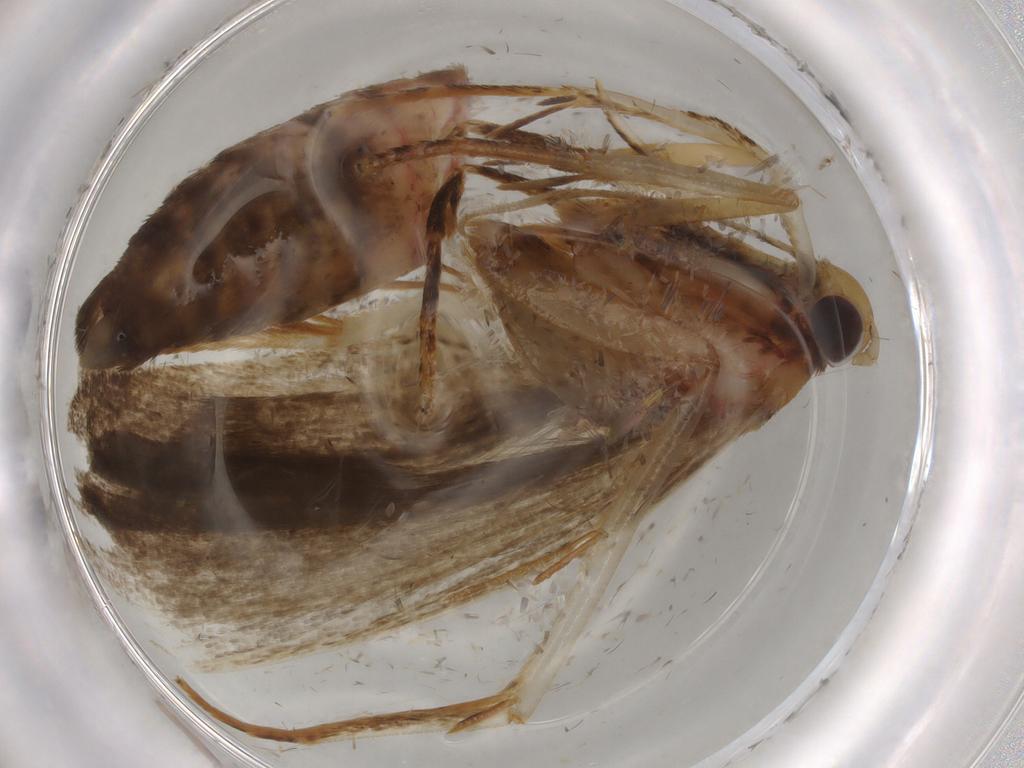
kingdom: Animalia
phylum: Arthropoda
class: Insecta
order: Lepidoptera
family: Autostichidae
